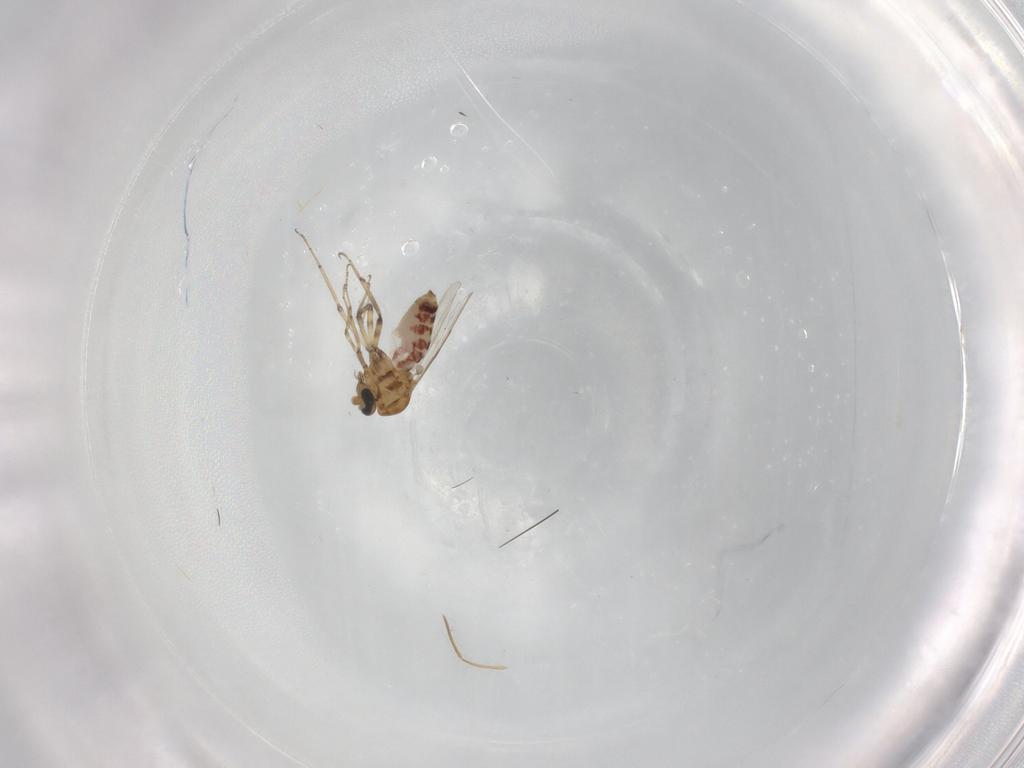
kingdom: Animalia
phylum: Arthropoda
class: Insecta
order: Diptera
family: Ceratopogonidae
